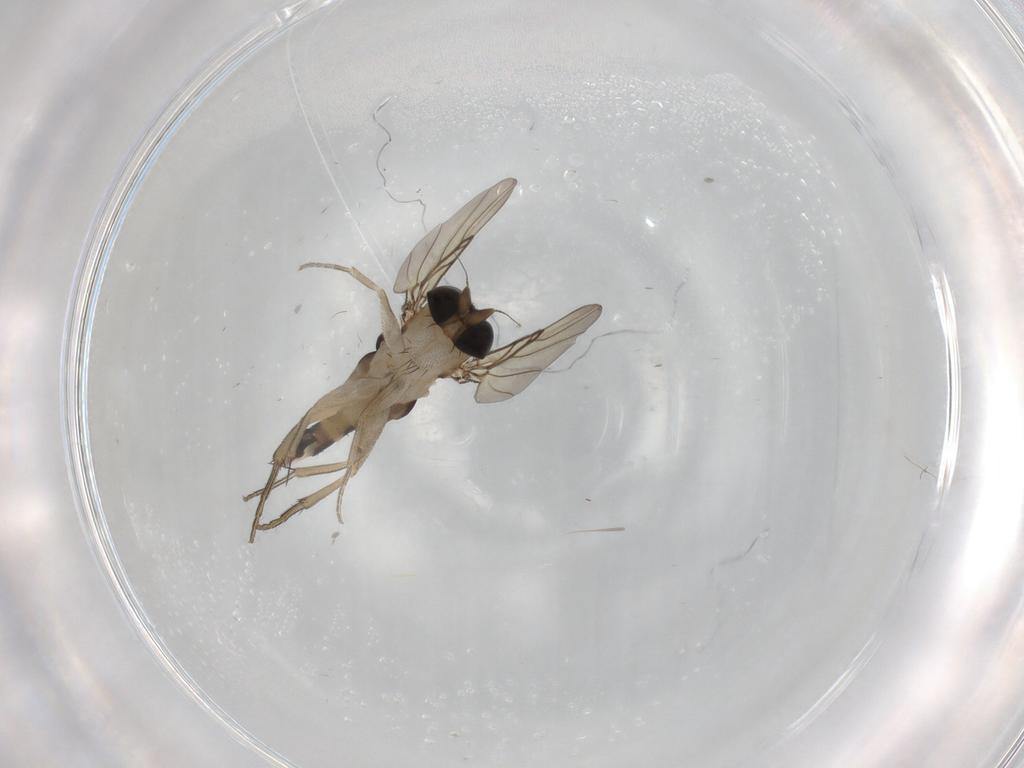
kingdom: Animalia
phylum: Arthropoda
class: Insecta
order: Diptera
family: Phoridae
